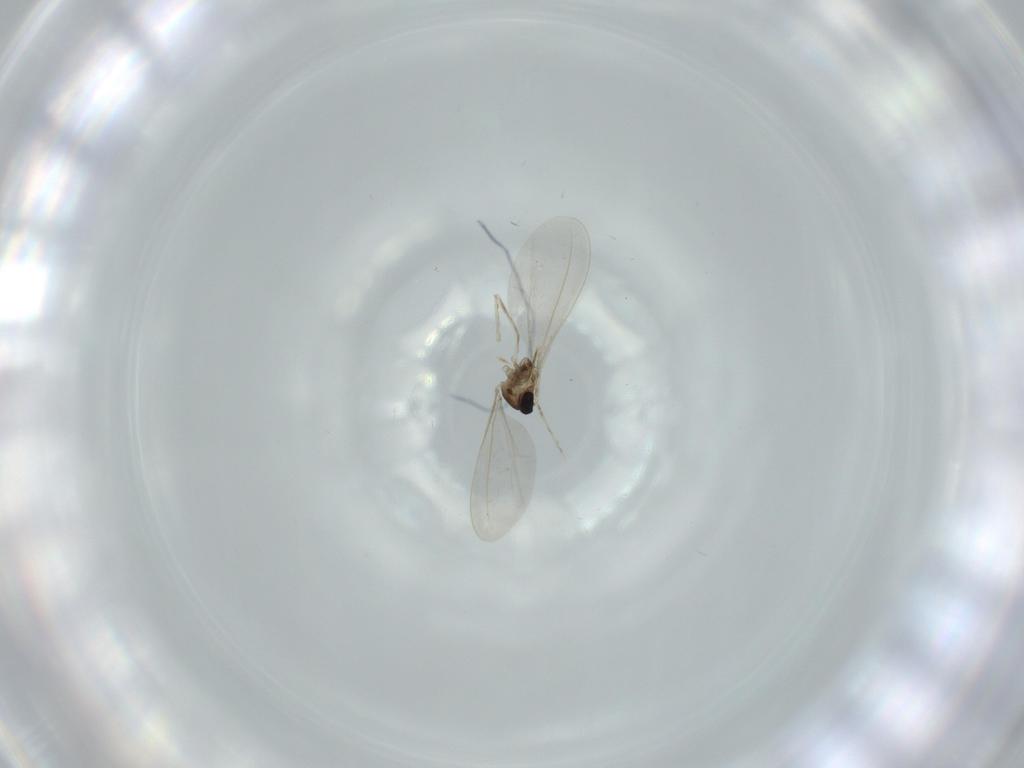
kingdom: Animalia
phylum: Arthropoda
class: Insecta
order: Diptera
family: Cecidomyiidae
